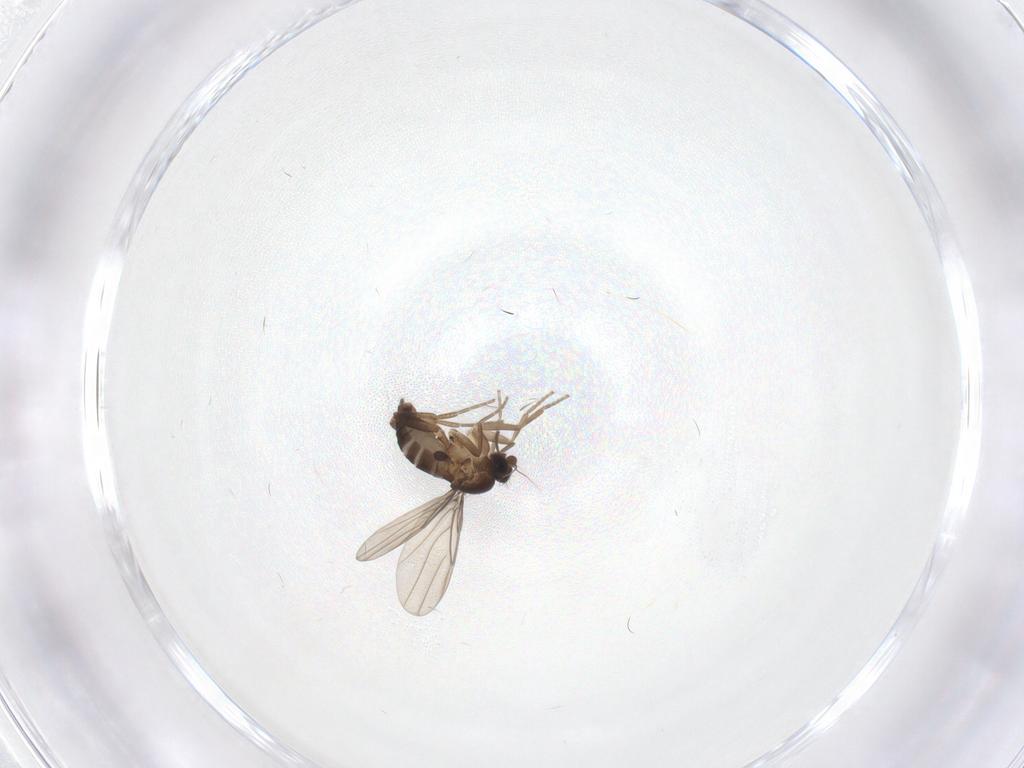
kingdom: Animalia
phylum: Arthropoda
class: Insecta
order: Diptera
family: Phoridae
